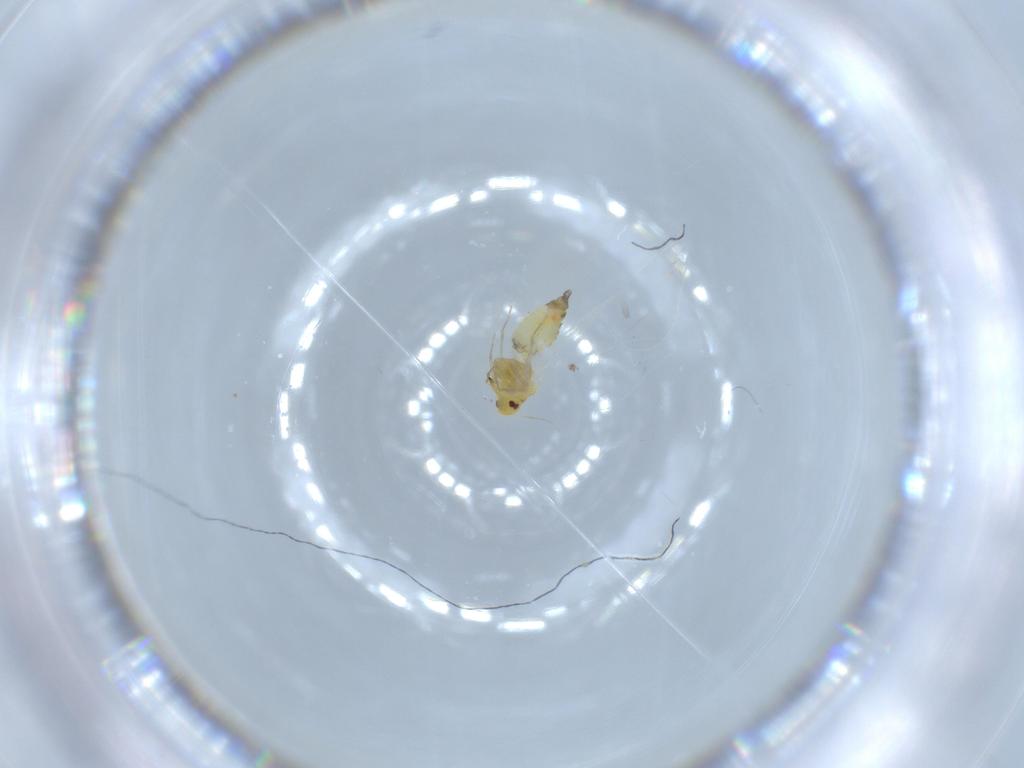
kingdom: Animalia
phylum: Arthropoda
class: Insecta
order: Hemiptera
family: Aleyrodidae
